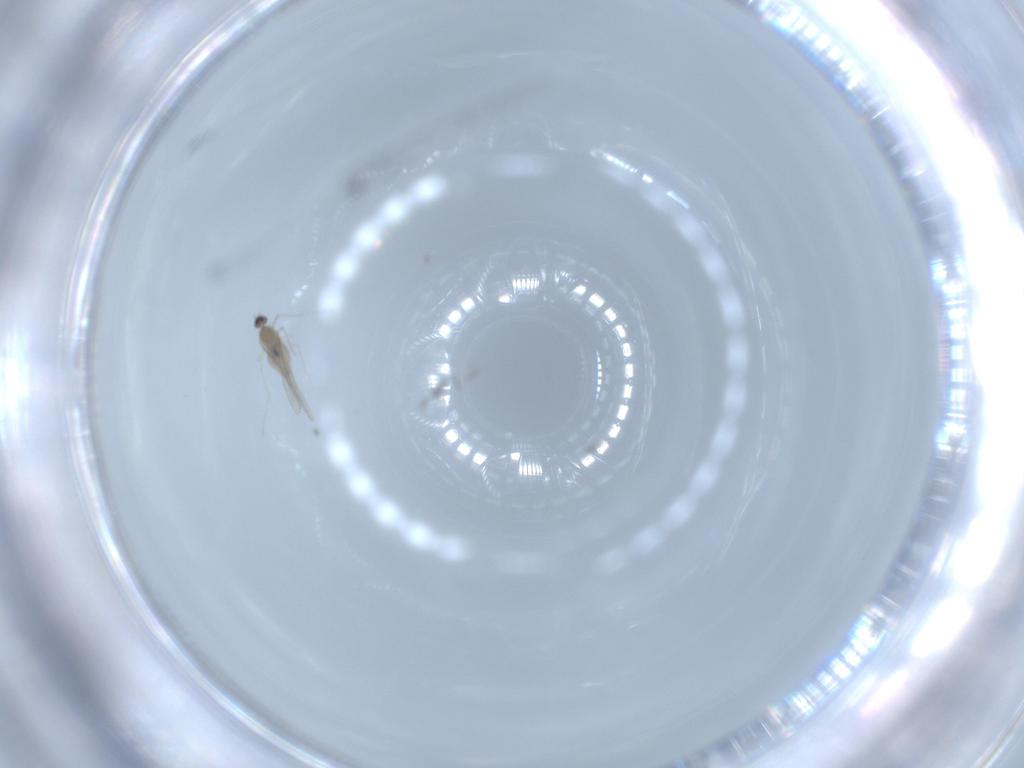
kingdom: Animalia
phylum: Arthropoda
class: Insecta
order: Diptera
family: Cecidomyiidae
